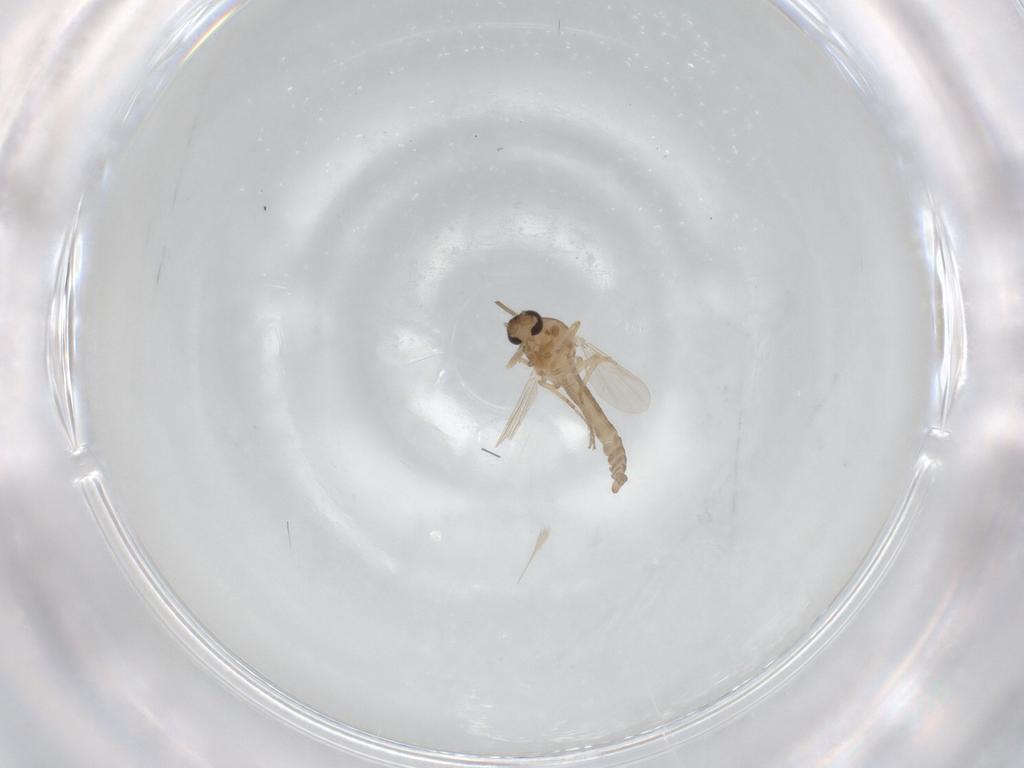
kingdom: Animalia
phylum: Arthropoda
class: Insecta
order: Diptera
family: Ceratopogonidae
